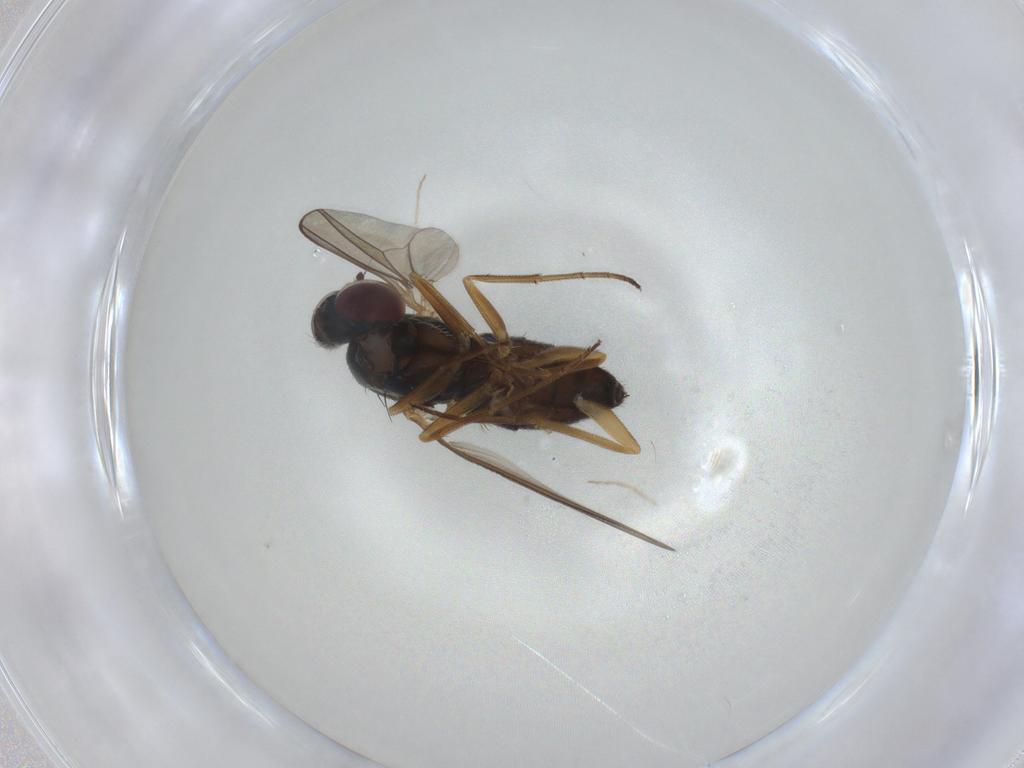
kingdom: Animalia
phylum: Arthropoda
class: Insecta
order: Diptera
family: Dolichopodidae
